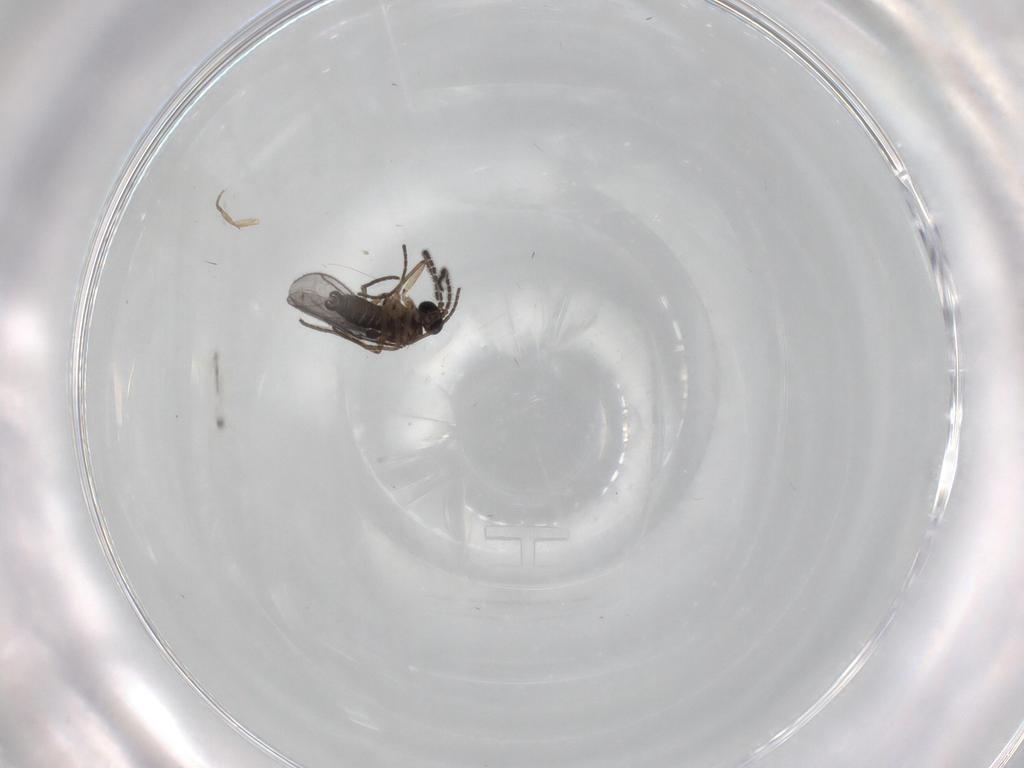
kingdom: Animalia
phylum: Arthropoda
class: Insecta
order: Diptera
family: Sciaridae
